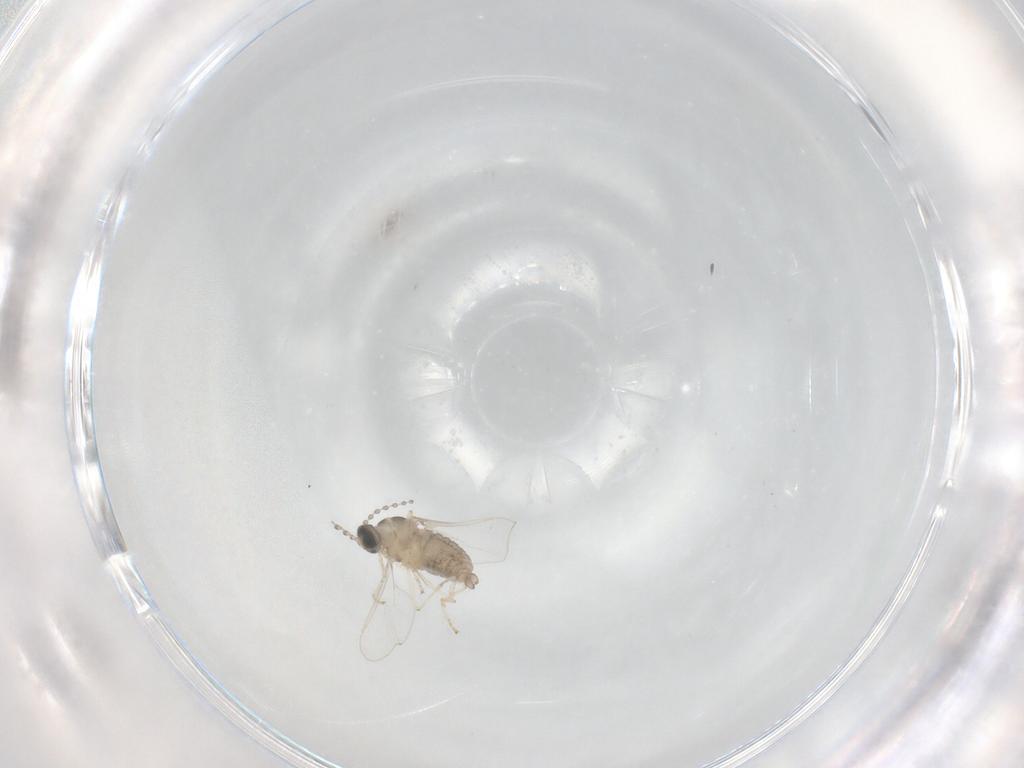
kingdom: Animalia
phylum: Arthropoda
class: Insecta
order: Diptera
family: Cecidomyiidae
